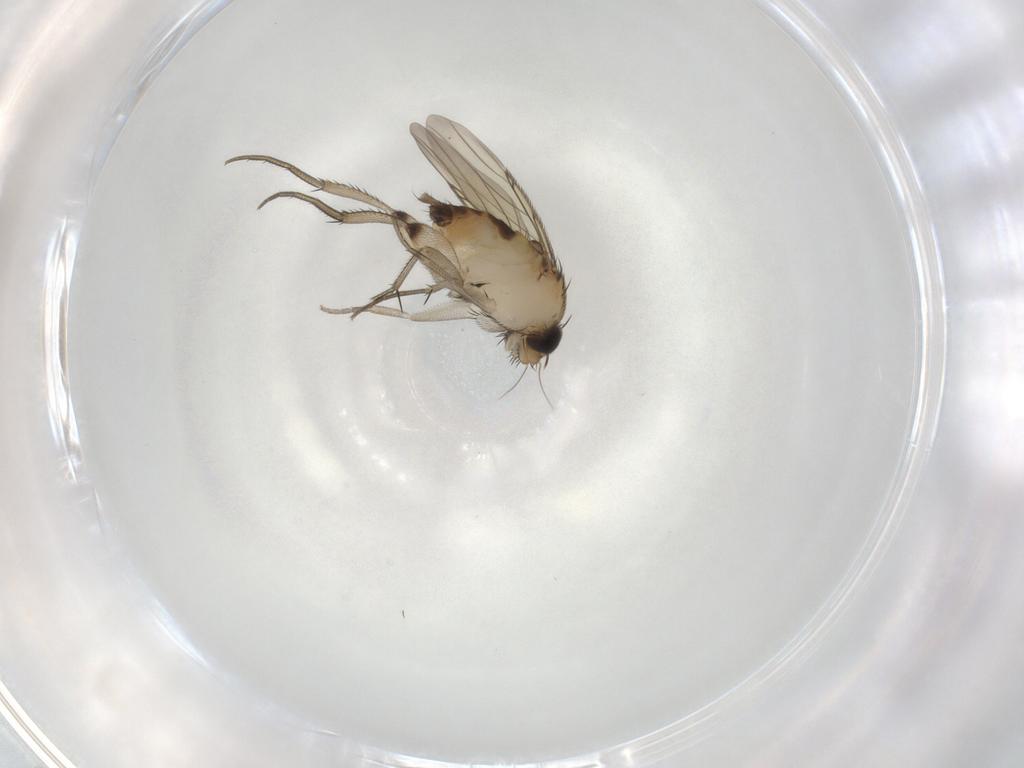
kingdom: Animalia
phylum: Arthropoda
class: Insecta
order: Diptera
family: Phoridae
